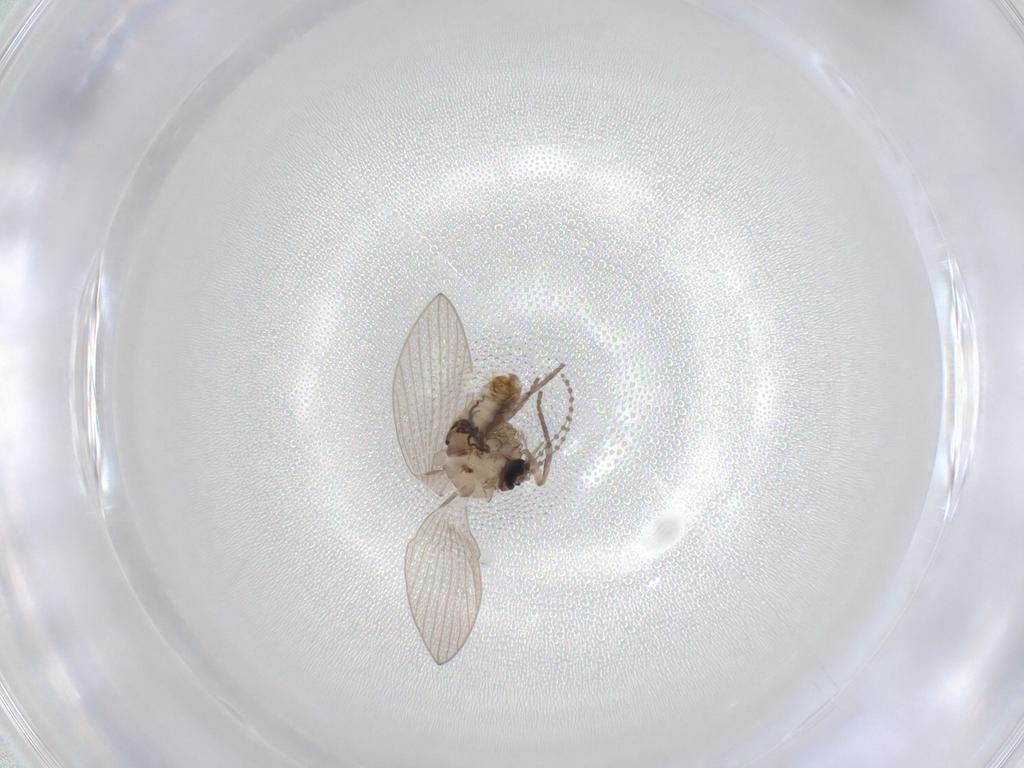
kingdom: Animalia
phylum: Arthropoda
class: Insecta
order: Diptera
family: Psychodidae
